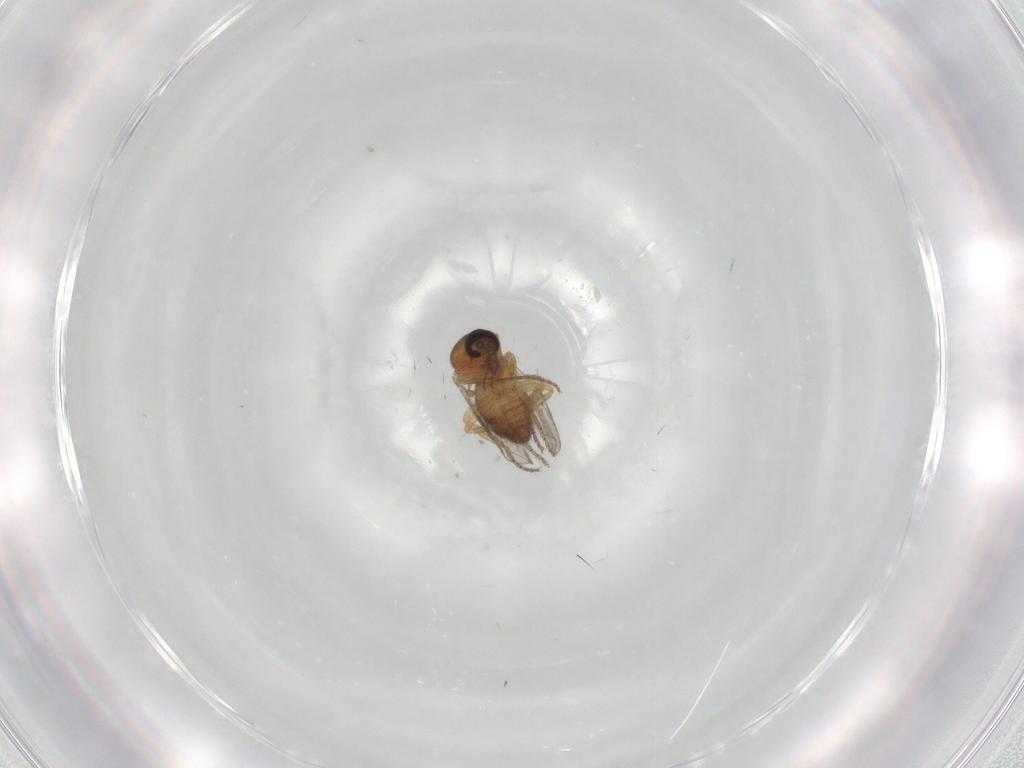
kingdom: Animalia
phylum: Arthropoda
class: Insecta
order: Diptera
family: Ceratopogonidae
